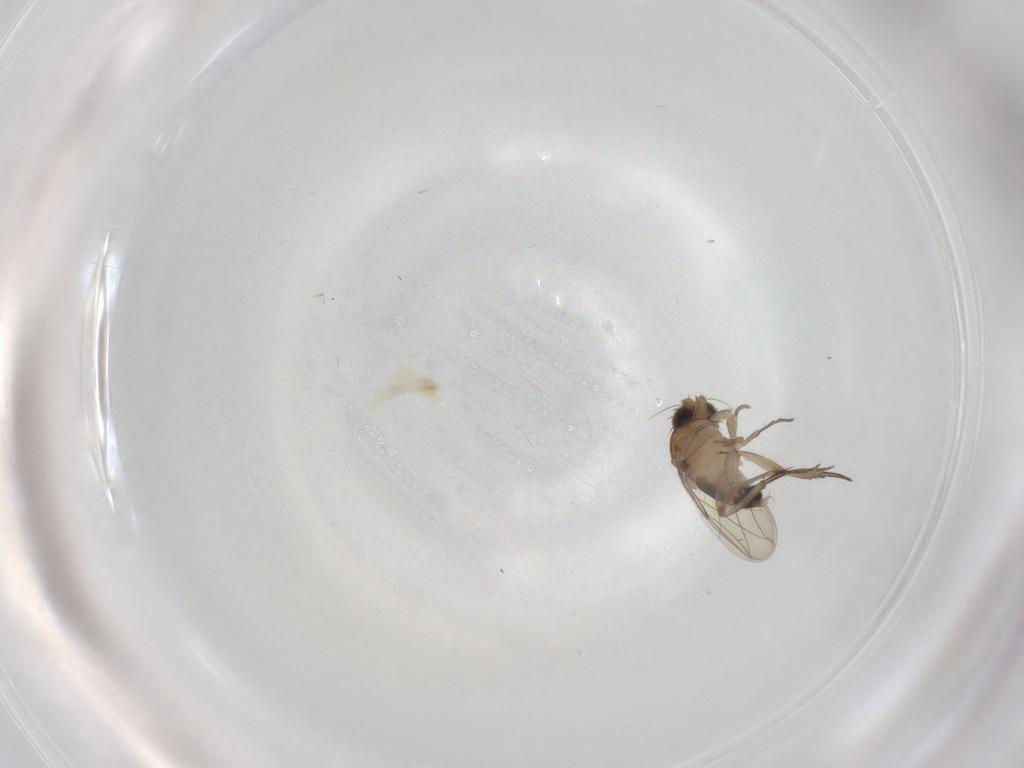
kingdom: Animalia
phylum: Arthropoda
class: Insecta
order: Diptera
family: Phoridae
